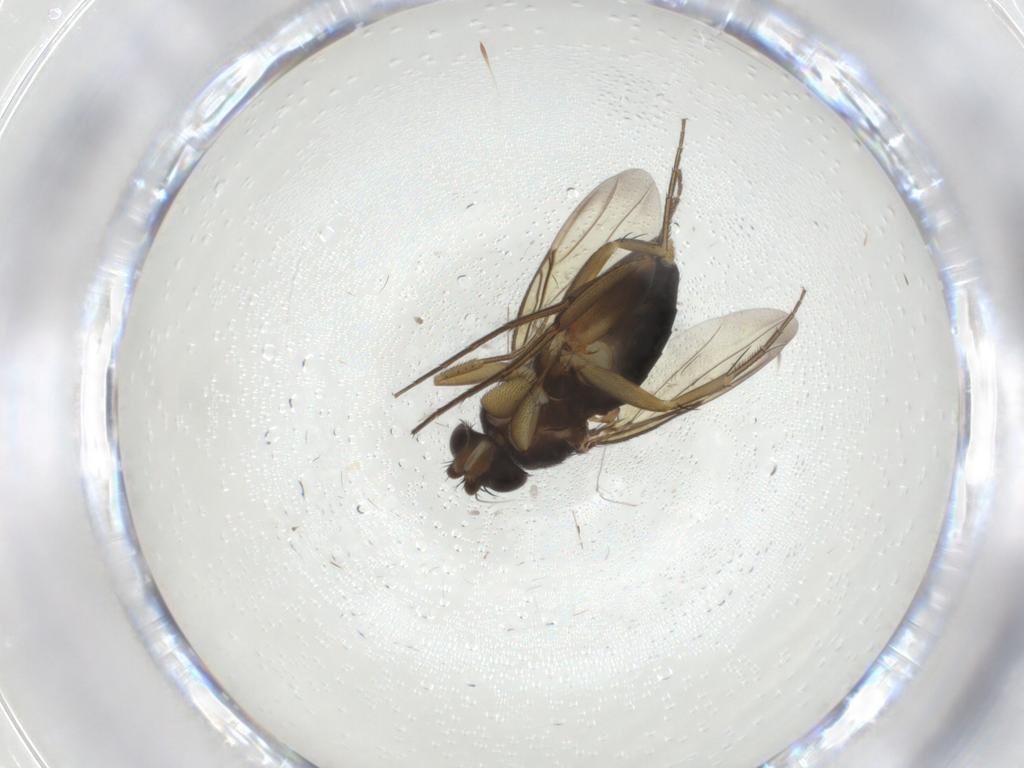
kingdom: Animalia
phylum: Arthropoda
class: Insecta
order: Diptera
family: Phoridae
